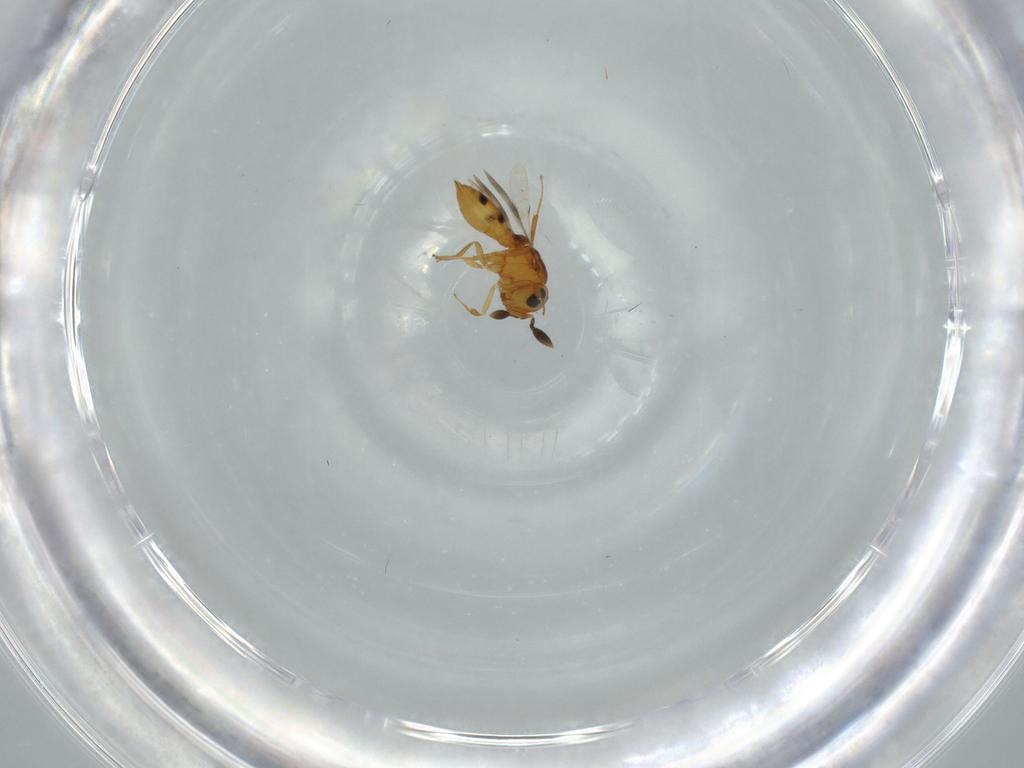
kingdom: Animalia
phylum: Arthropoda
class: Insecta
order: Hymenoptera
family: Scelionidae
